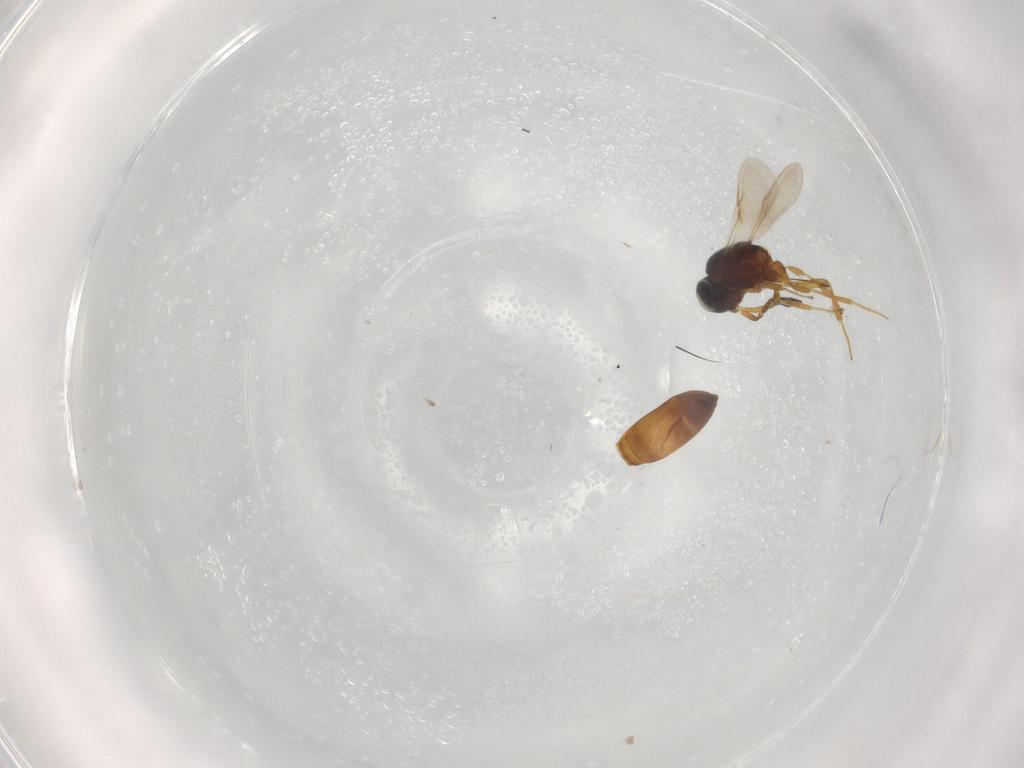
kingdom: Animalia
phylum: Arthropoda
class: Insecta
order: Hymenoptera
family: Scelionidae
